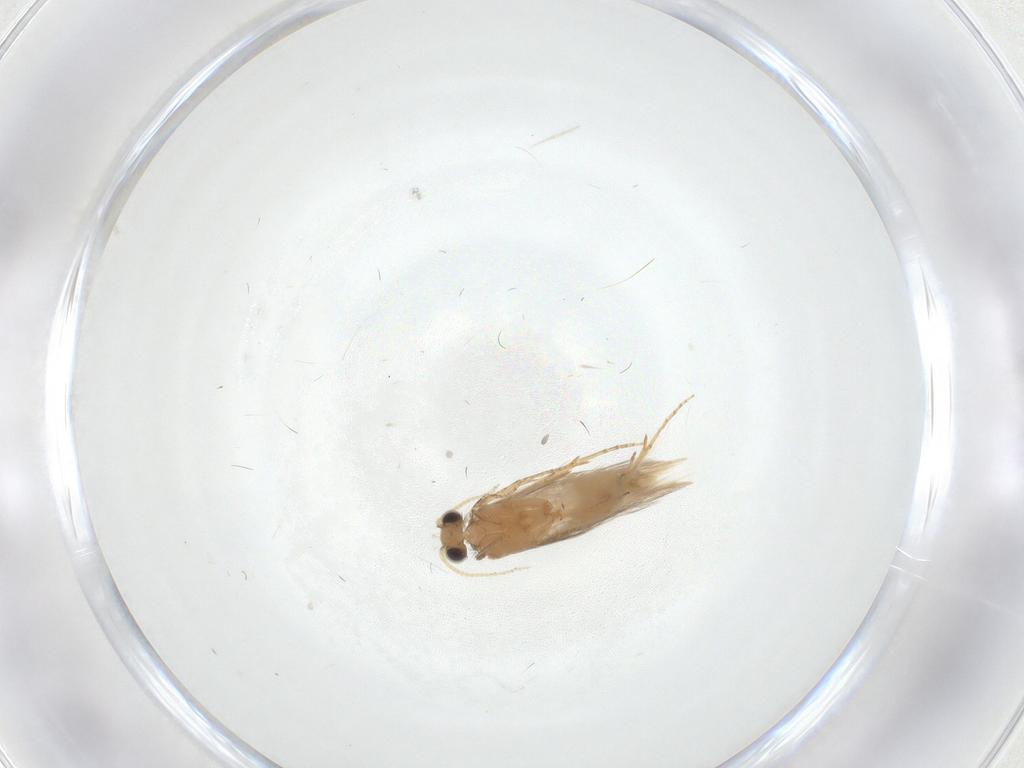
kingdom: Animalia
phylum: Arthropoda
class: Insecta
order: Trichoptera
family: Hydroptilidae
